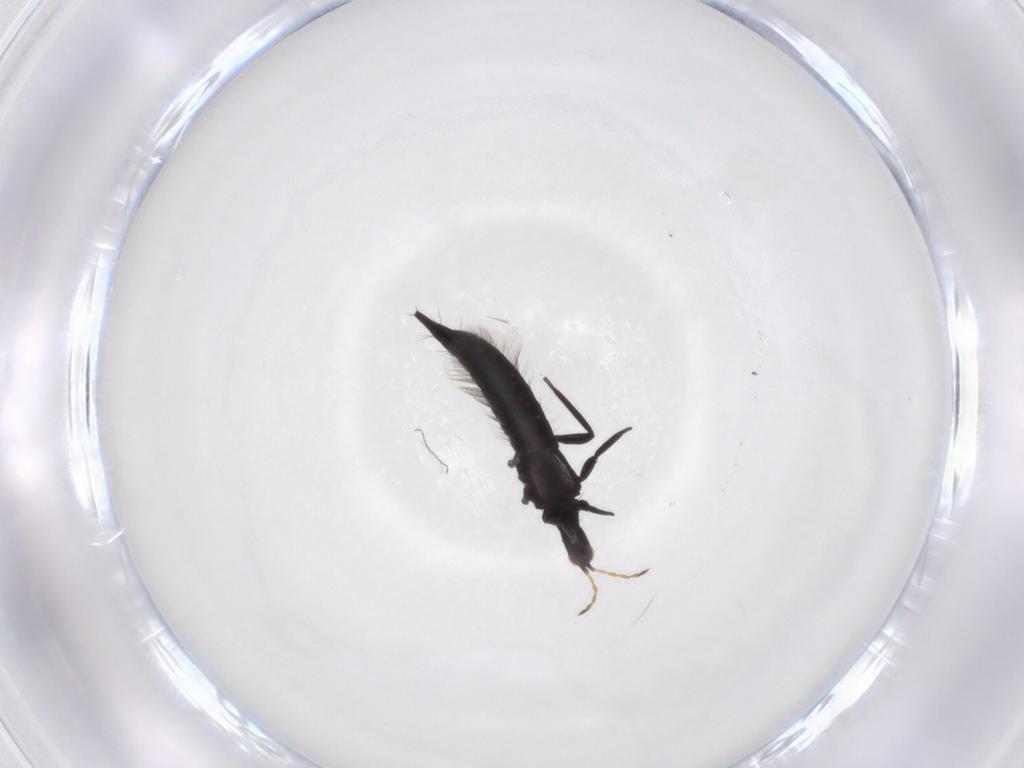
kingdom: Animalia
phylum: Arthropoda
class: Insecta
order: Thysanoptera
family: Phlaeothripidae
